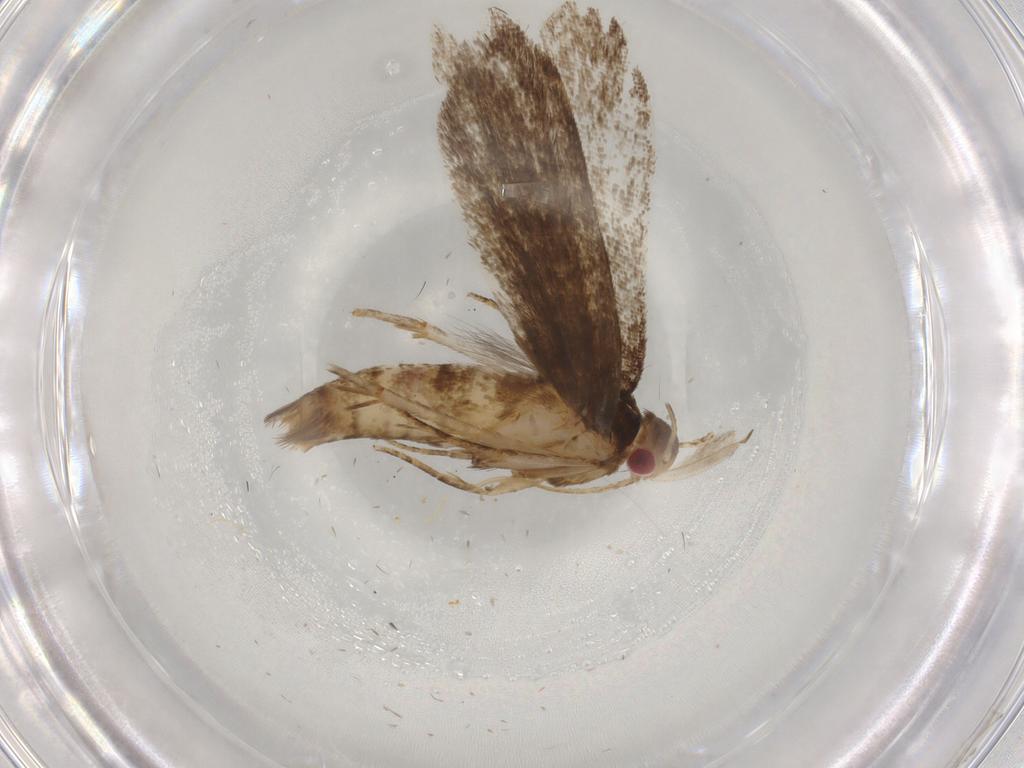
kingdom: Animalia
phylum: Arthropoda
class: Insecta
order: Lepidoptera
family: Gelechiidae
